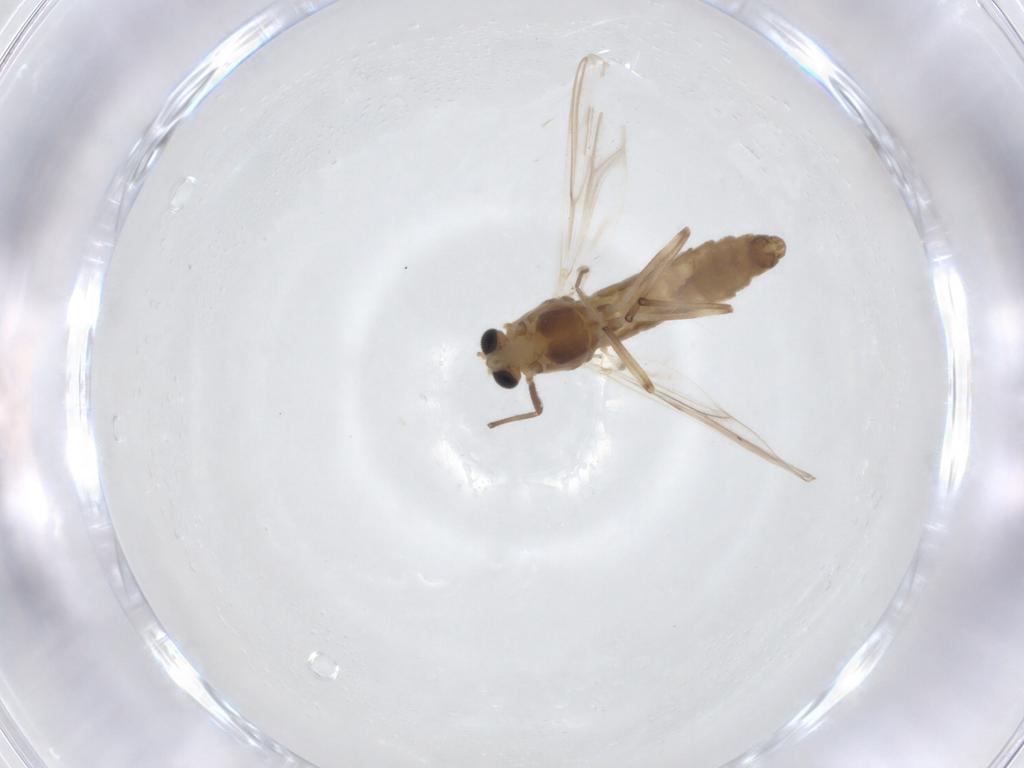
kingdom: Animalia
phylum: Arthropoda
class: Insecta
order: Diptera
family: Chironomidae
